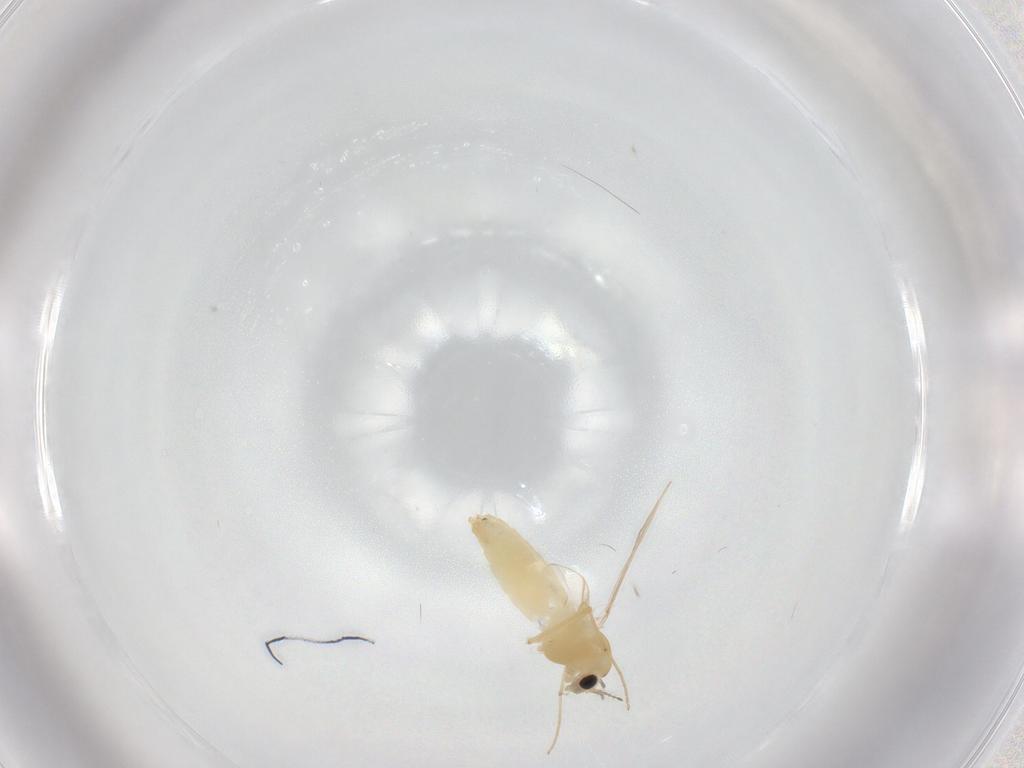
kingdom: Animalia
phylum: Arthropoda
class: Insecta
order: Diptera
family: Chironomidae
